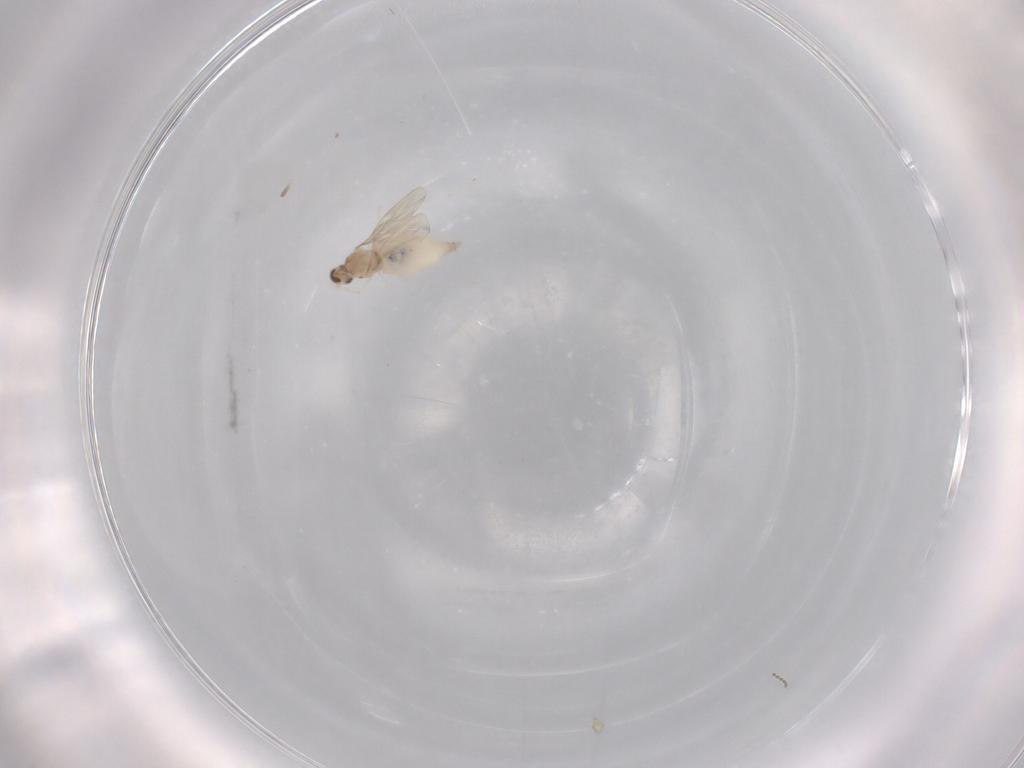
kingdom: Animalia
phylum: Arthropoda
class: Insecta
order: Diptera
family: Cecidomyiidae
